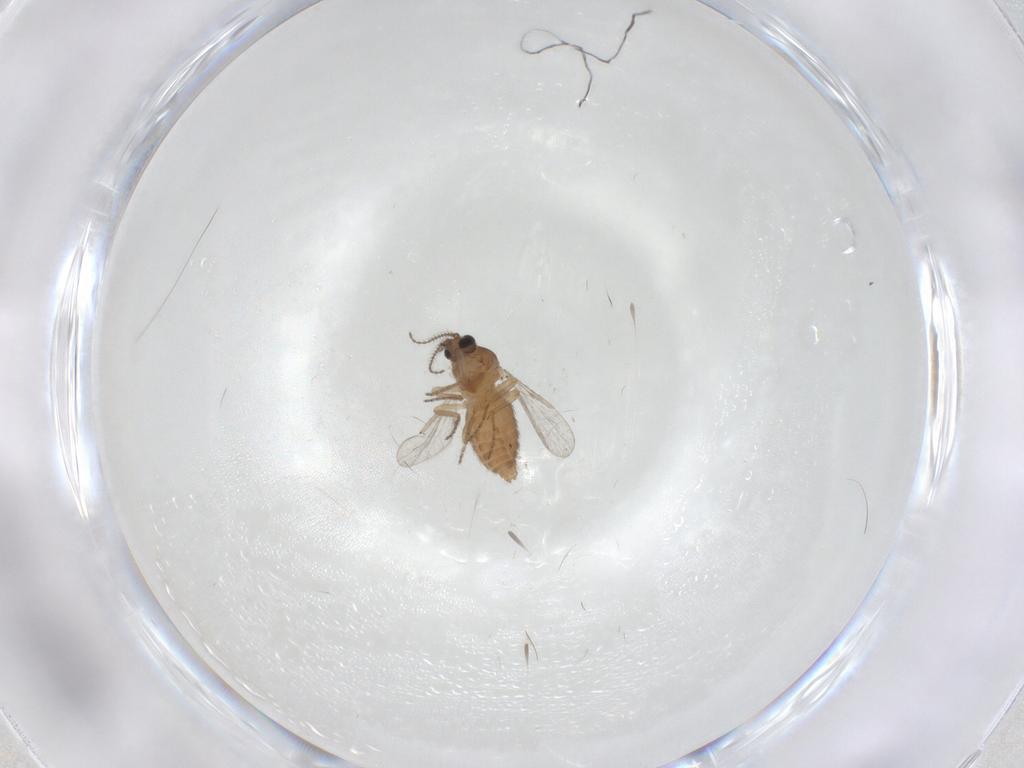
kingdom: Animalia
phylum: Arthropoda
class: Insecta
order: Diptera
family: Ceratopogonidae
